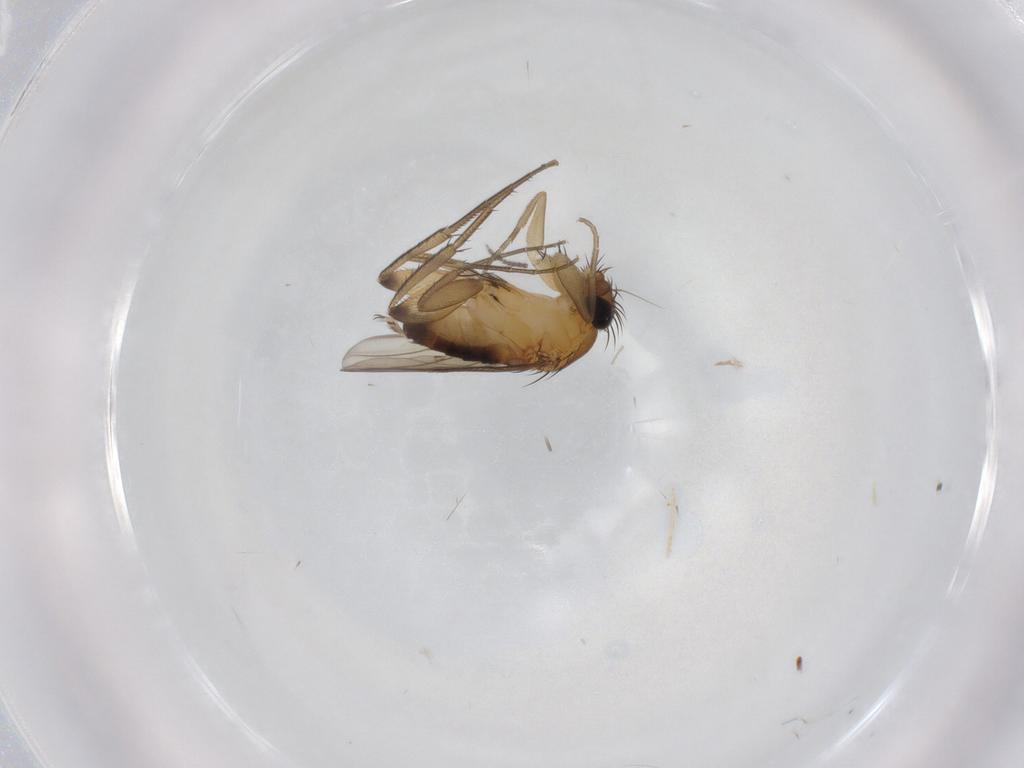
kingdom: Animalia
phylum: Arthropoda
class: Insecta
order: Diptera
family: Phoridae
